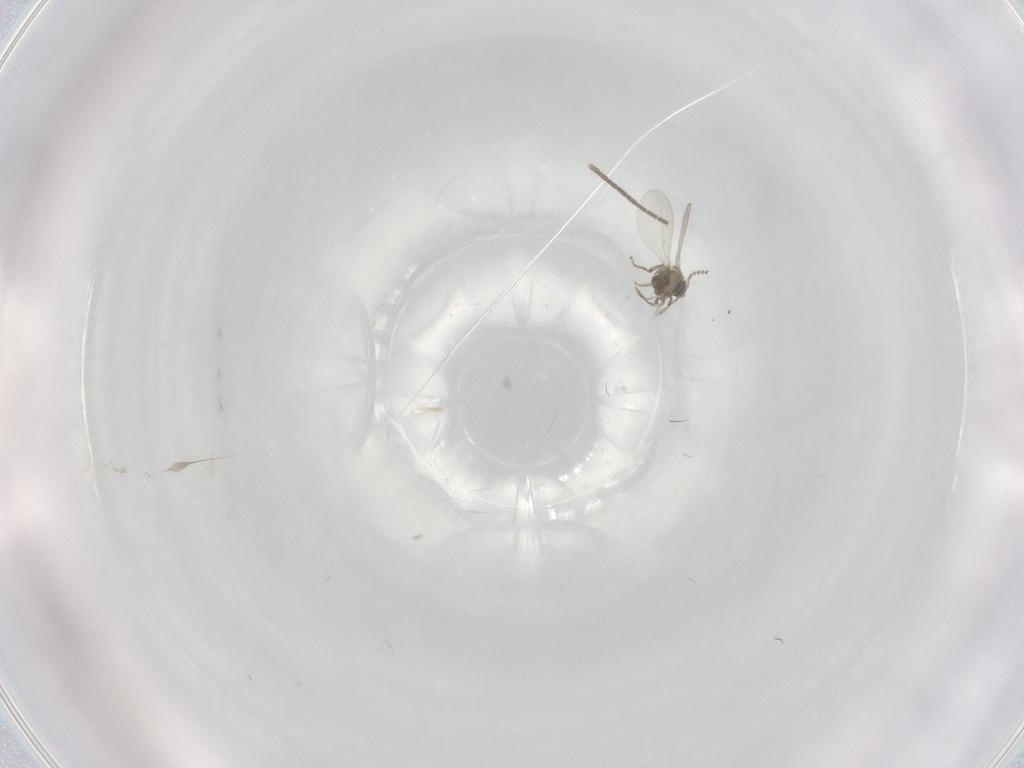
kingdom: Animalia
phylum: Arthropoda
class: Insecta
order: Diptera
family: Sciaridae
